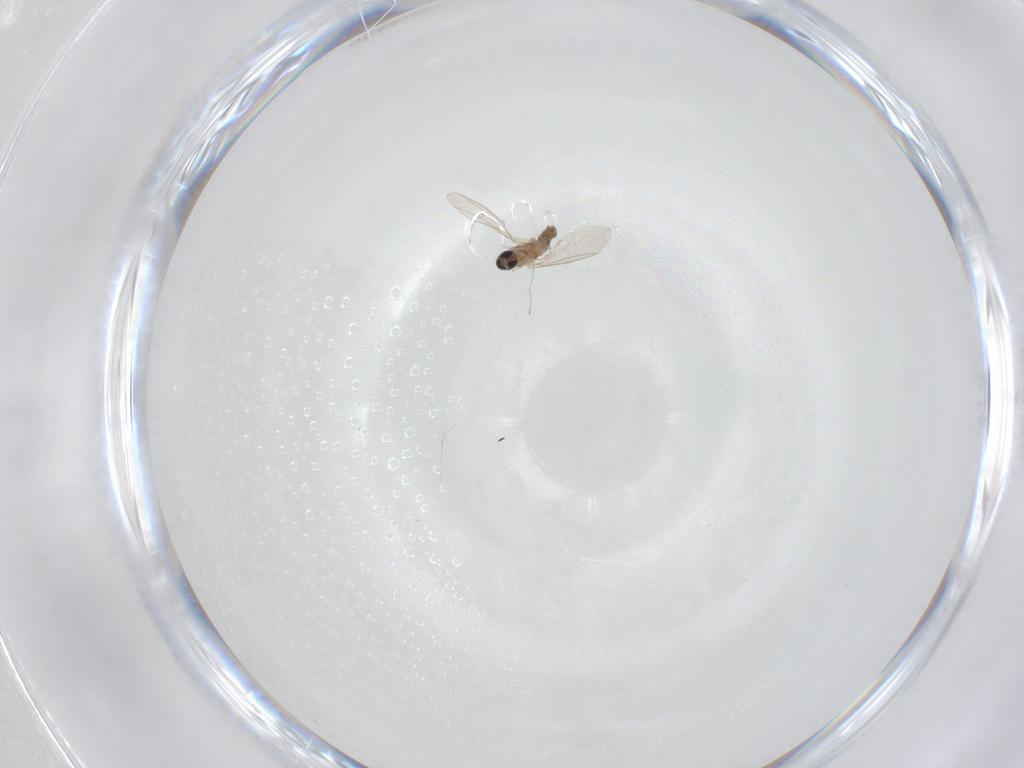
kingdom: Animalia
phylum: Arthropoda
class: Insecta
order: Diptera
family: Cecidomyiidae
